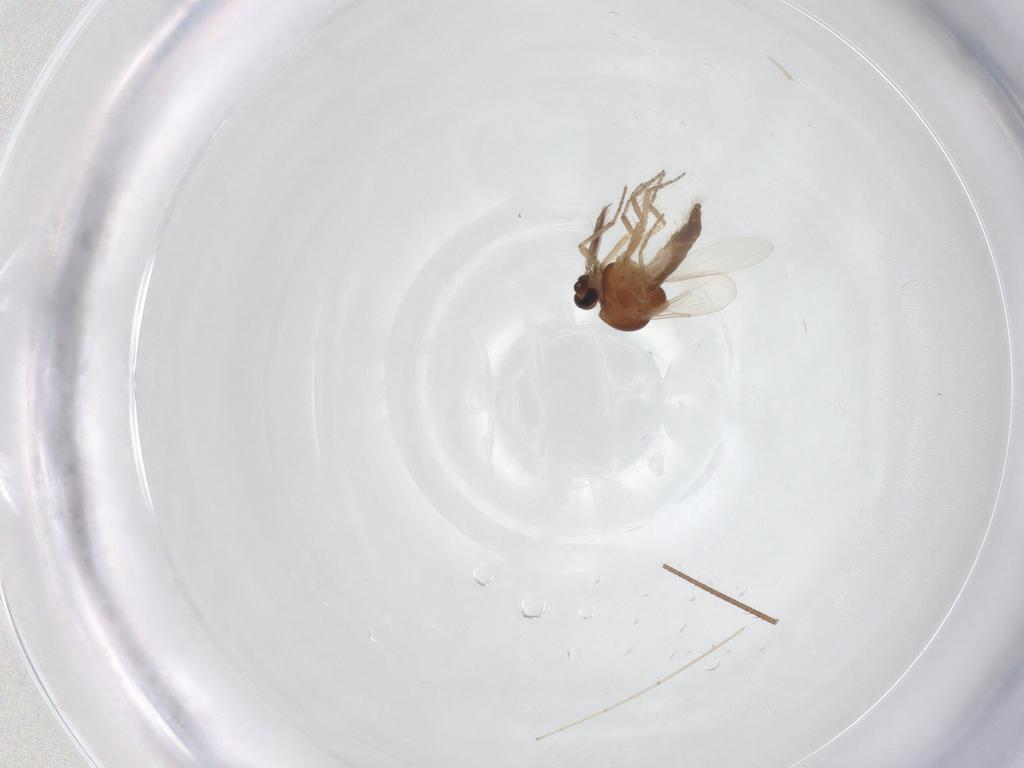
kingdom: Animalia
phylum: Arthropoda
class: Insecta
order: Diptera
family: Ceratopogonidae
